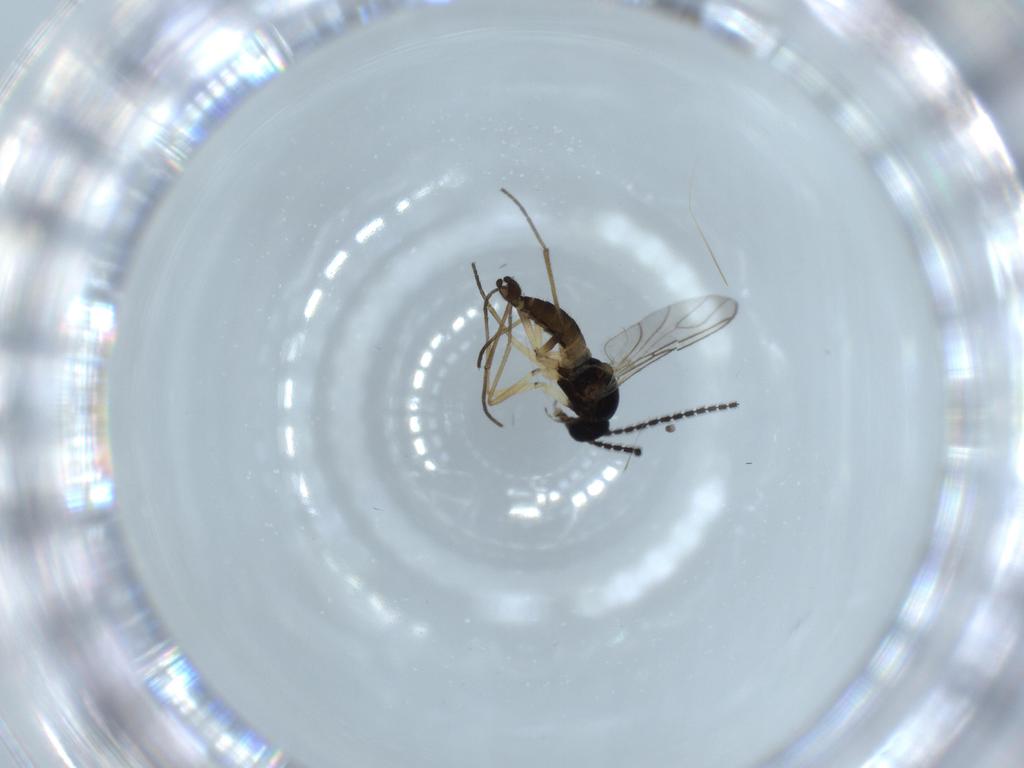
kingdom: Animalia
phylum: Arthropoda
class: Insecta
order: Diptera
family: Sciaridae
